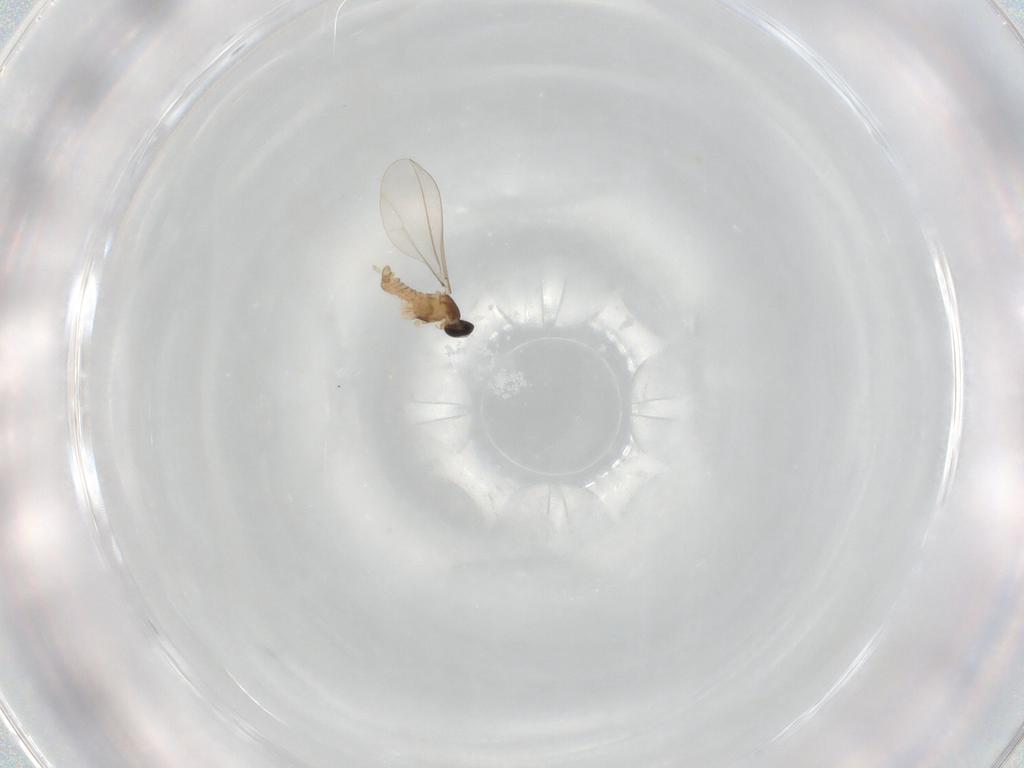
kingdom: Animalia
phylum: Arthropoda
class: Insecta
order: Diptera
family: Cecidomyiidae
